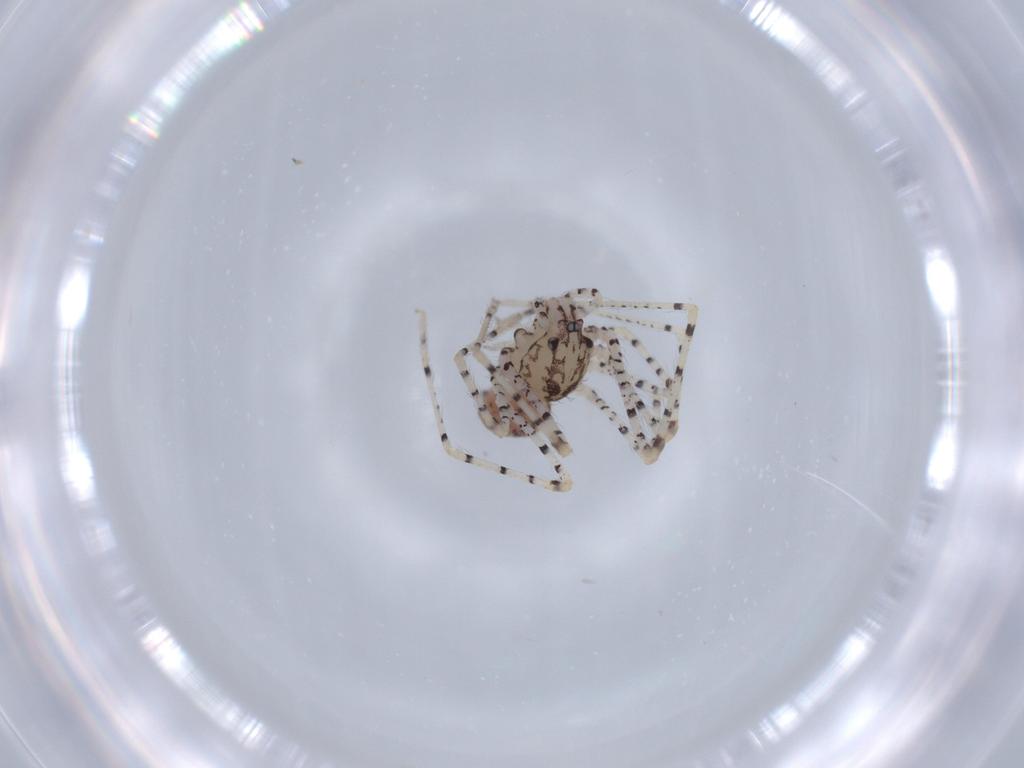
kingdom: Animalia
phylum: Arthropoda
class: Arachnida
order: Araneae
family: Scytodidae
